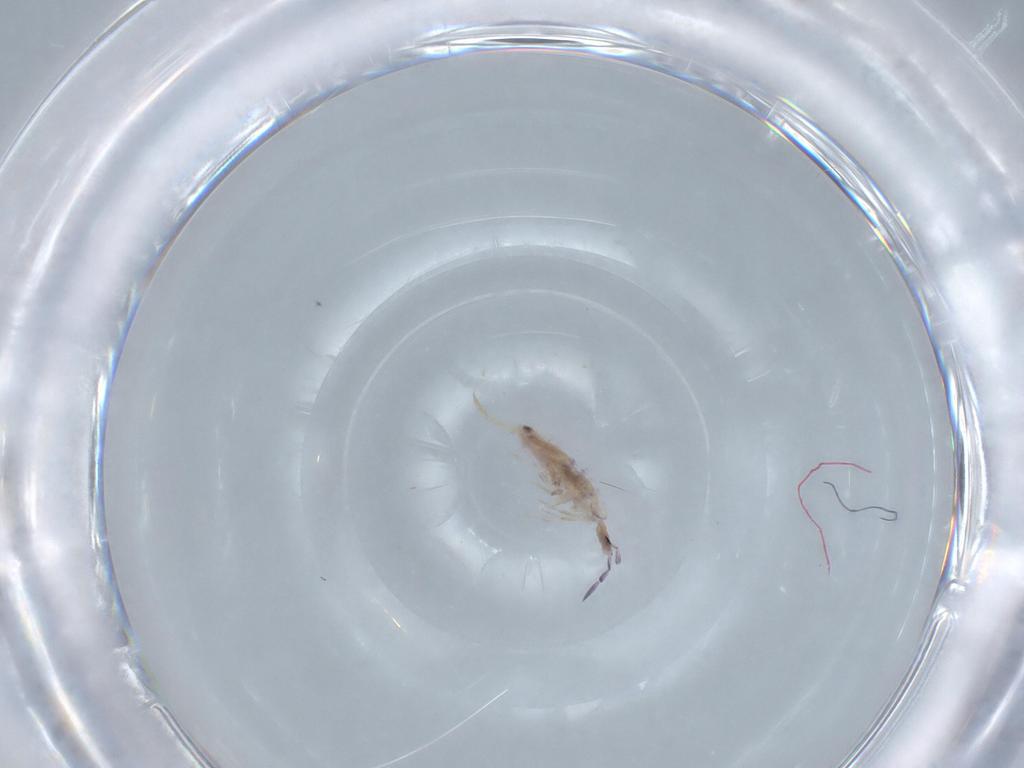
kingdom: Animalia
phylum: Arthropoda
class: Collembola
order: Poduromorpha
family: Hypogastruridae
